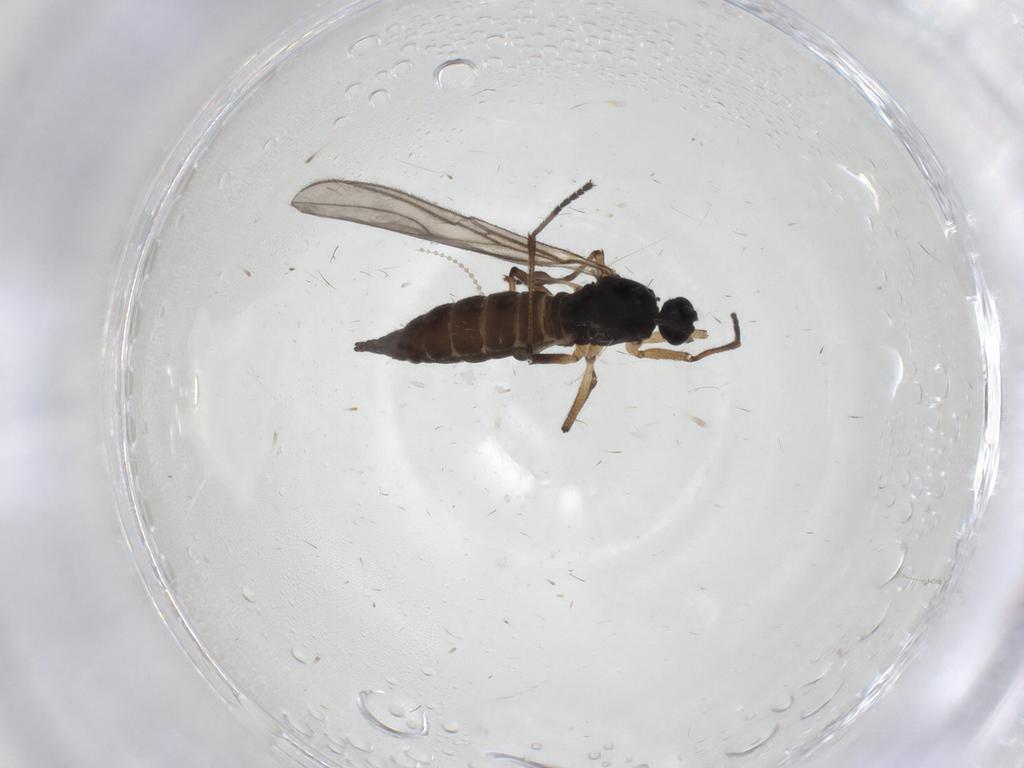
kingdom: Animalia
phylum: Arthropoda
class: Insecta
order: Diptera
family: Sciaridae
